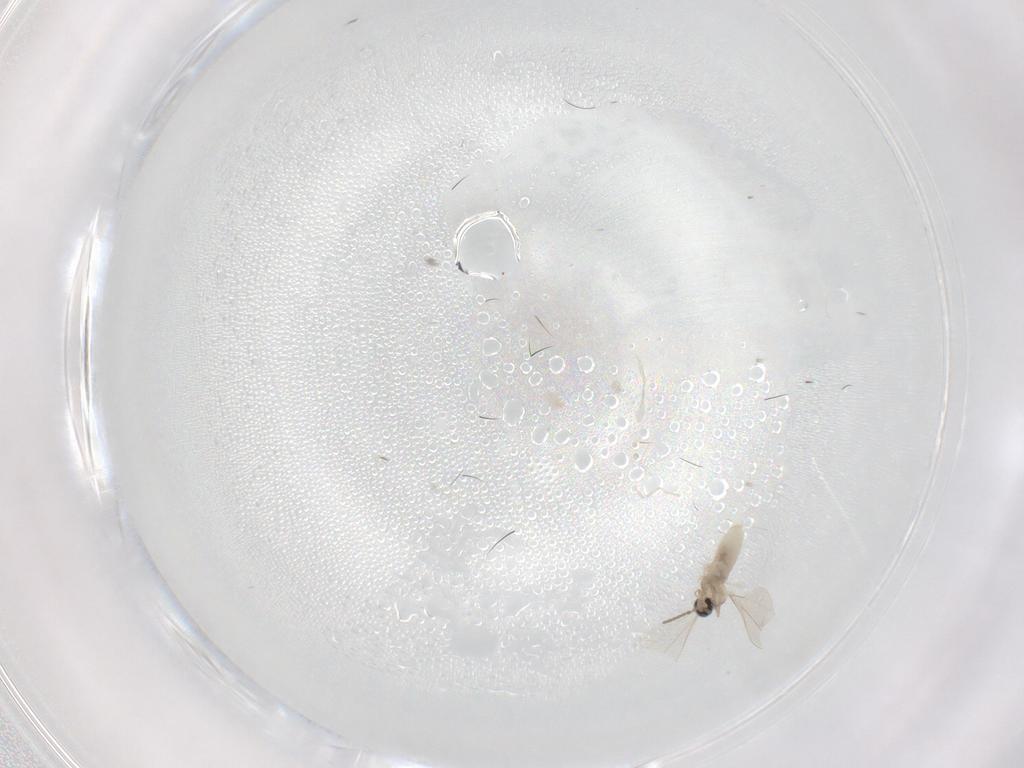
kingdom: Animalia
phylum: Arthropoda
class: Insecta
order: Diptera
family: Cecidomyiidae
